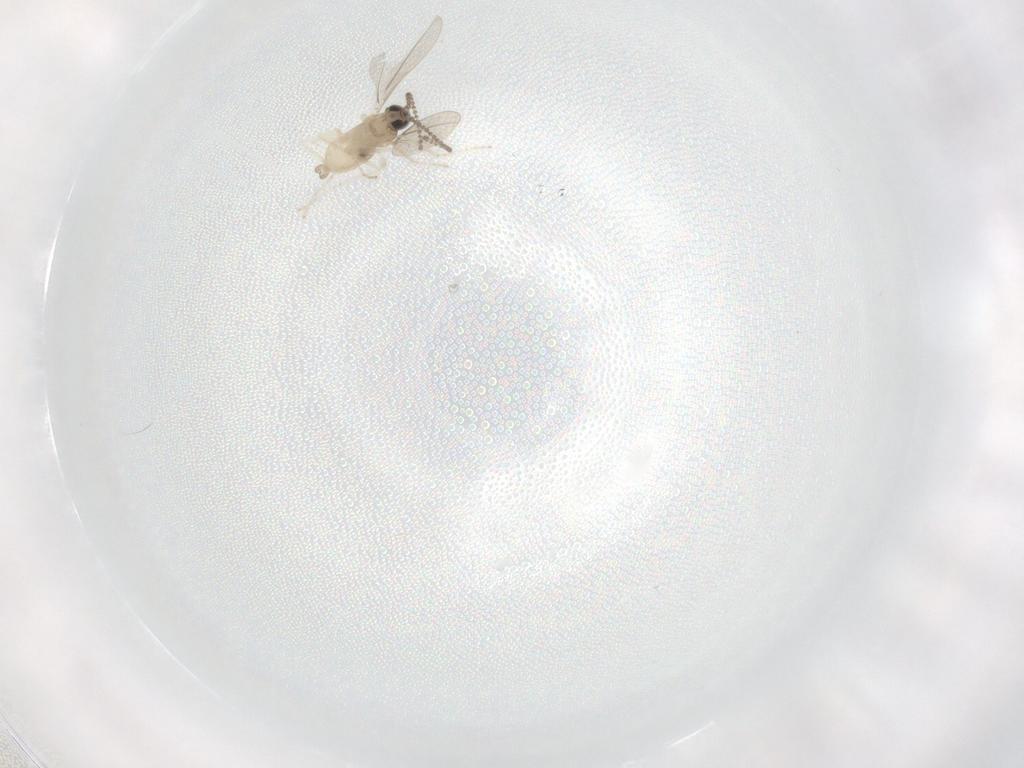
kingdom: Animalia
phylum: Arthropoda
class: Insecta
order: Diptera
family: Cecidomyiidae
